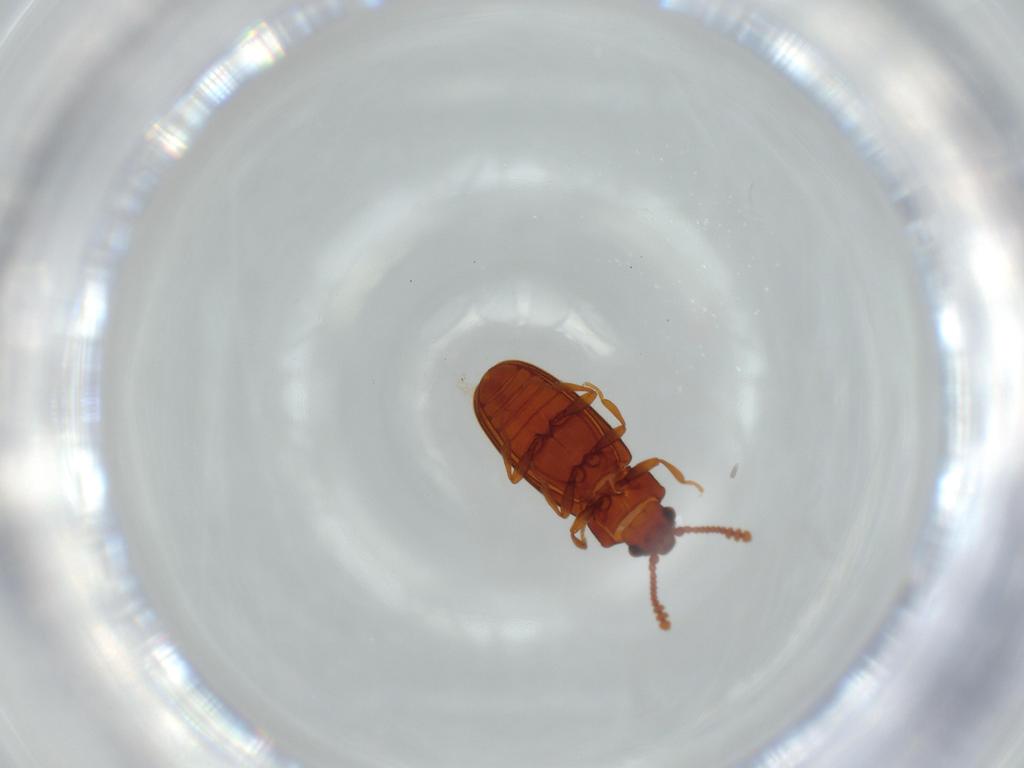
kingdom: Animalia
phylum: Arthropoda
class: Insecta
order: Coleoptera
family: Erotylidae
